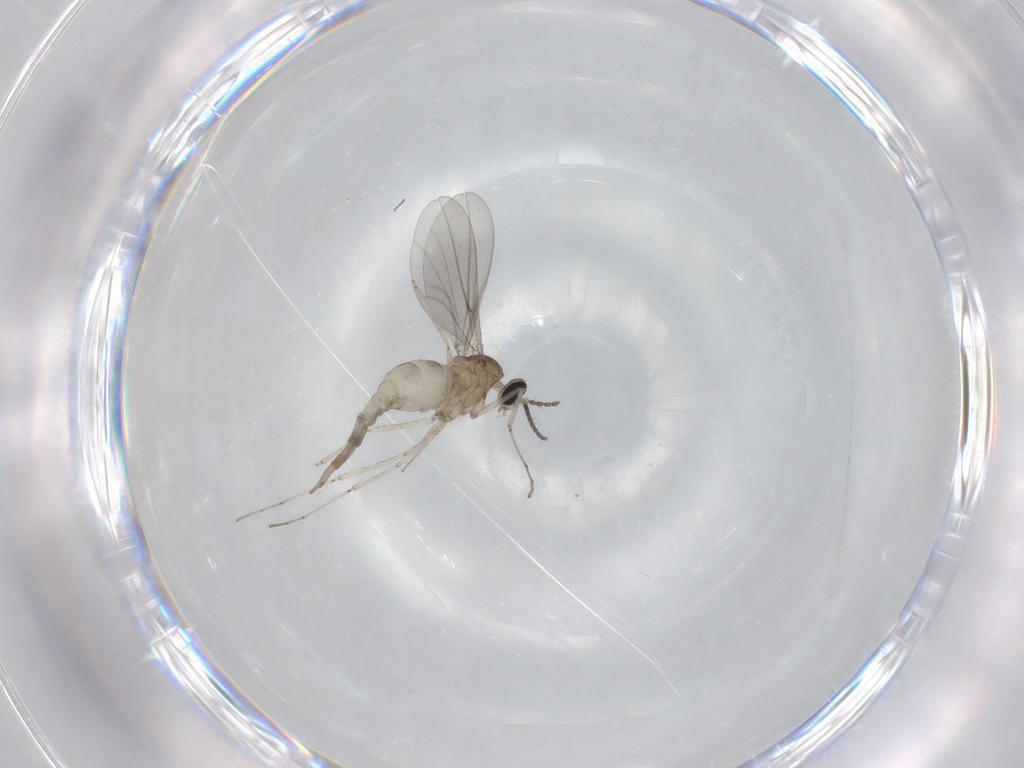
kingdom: Animalia
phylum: Arthropoda
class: Insecta
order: Diptera
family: Cecidomyiidae
